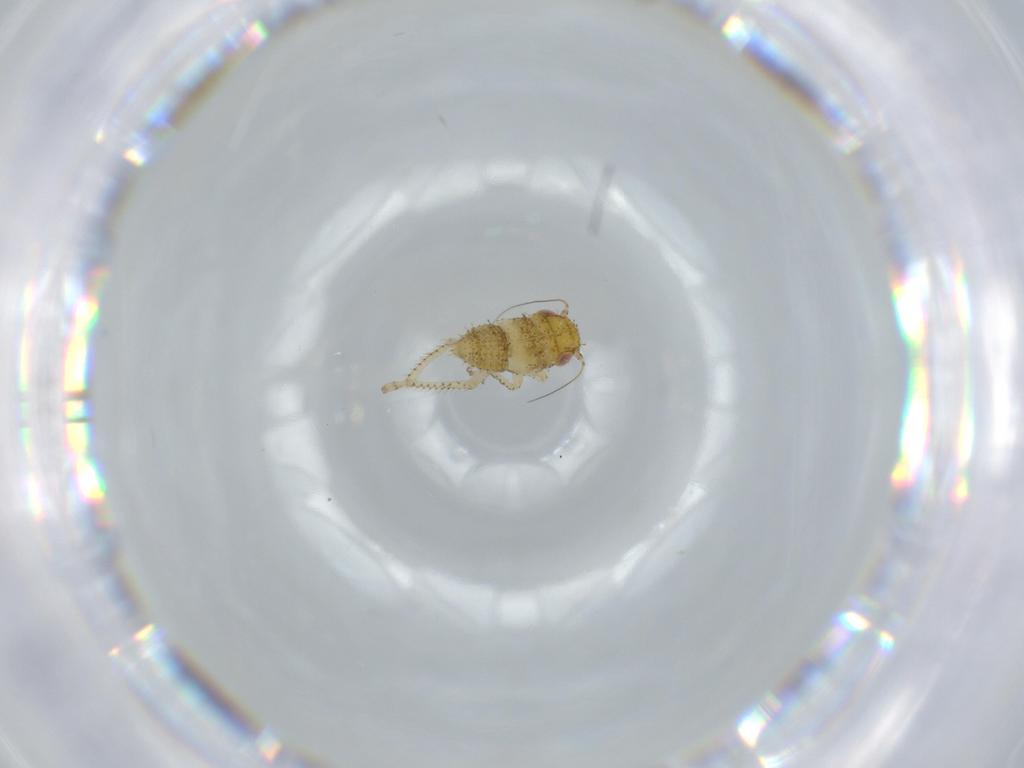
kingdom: Animalia
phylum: Arthropoda
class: Insecta
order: Hemiptera
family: Cicadellidae
